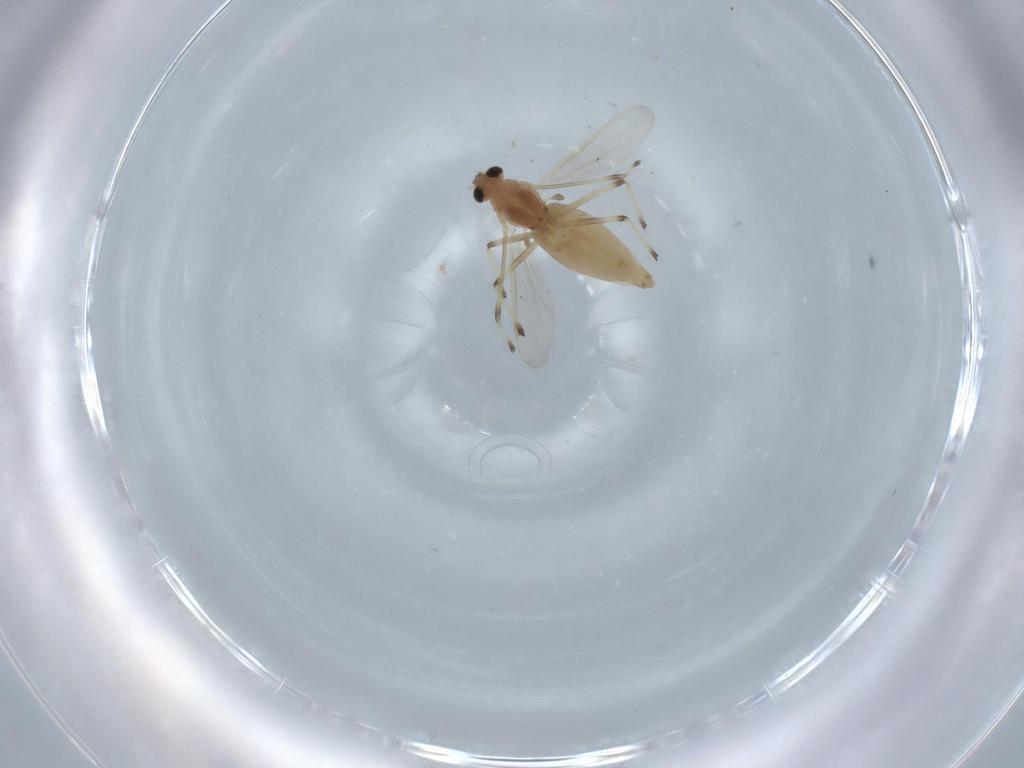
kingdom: Animalia
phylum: Arthropoda
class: Insecta
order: Diptera
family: Chironomidae
